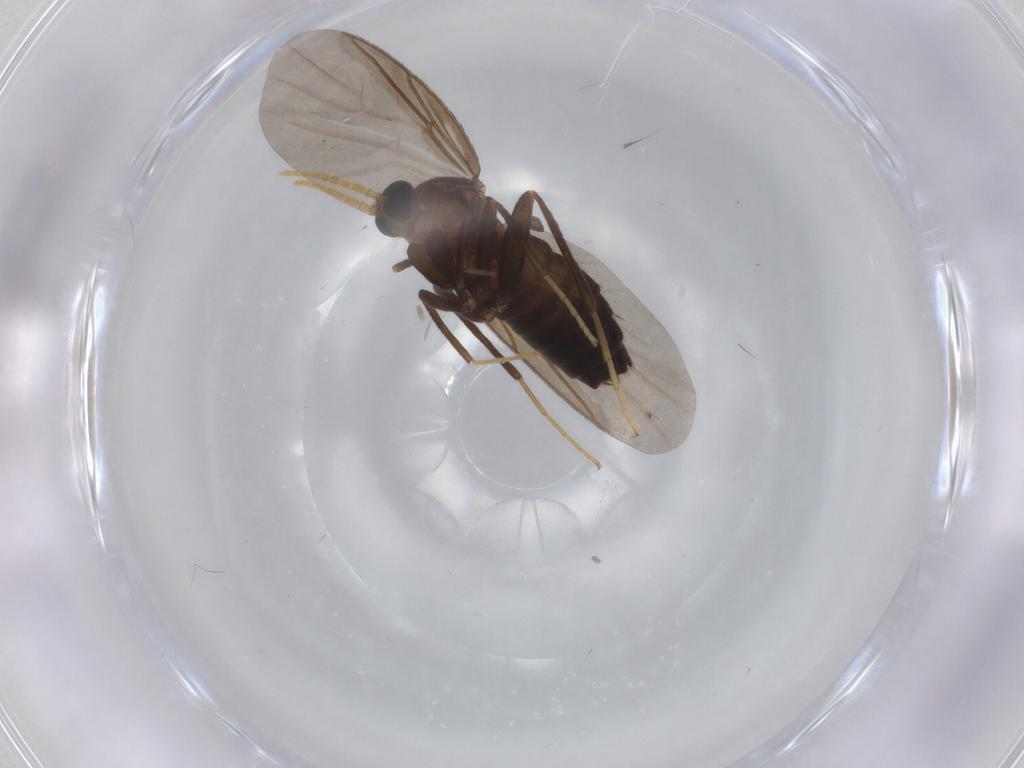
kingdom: Animalia
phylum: Arthropoda
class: Insecta
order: Diptera
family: Scatopsidae
